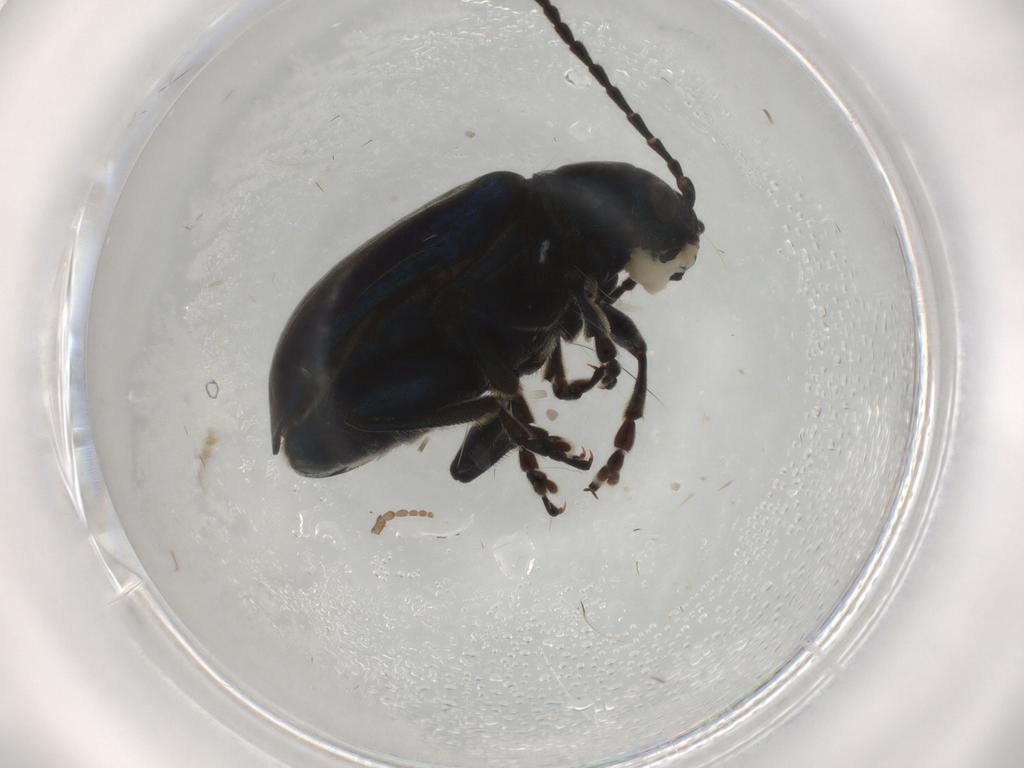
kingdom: Animalia
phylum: Arthropoda
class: Insecta
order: Coleoptera
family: Chrysomelidae
